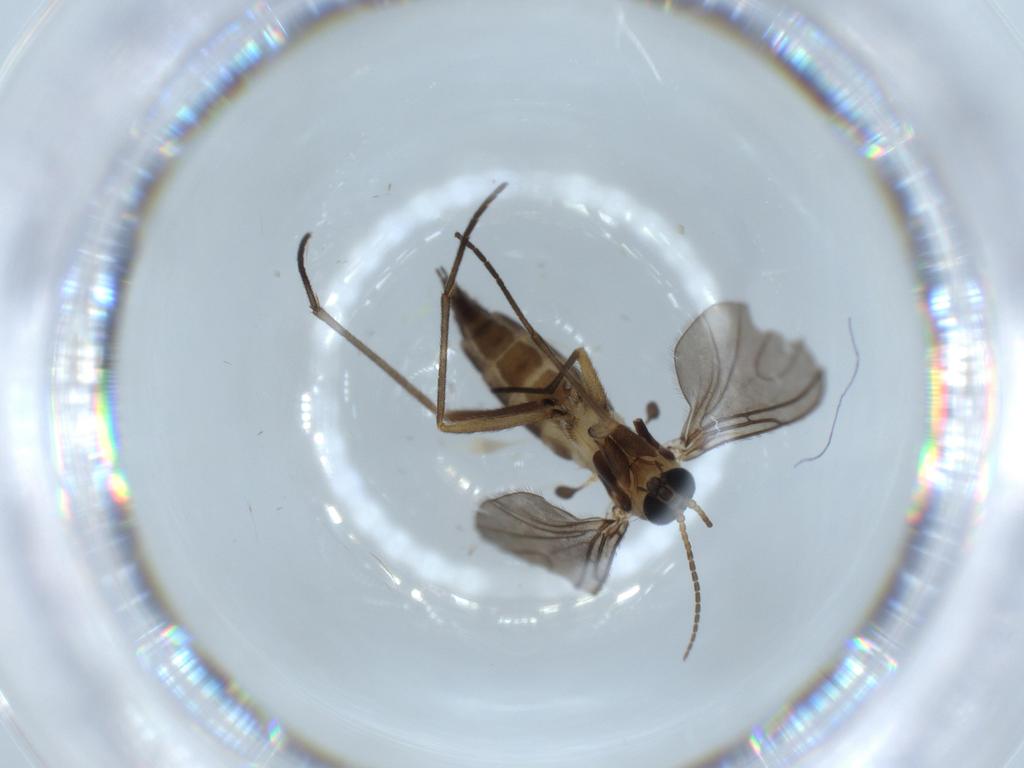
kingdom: Animalia
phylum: Arthropoda
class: Insecta
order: Diptera
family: Sciaridae
